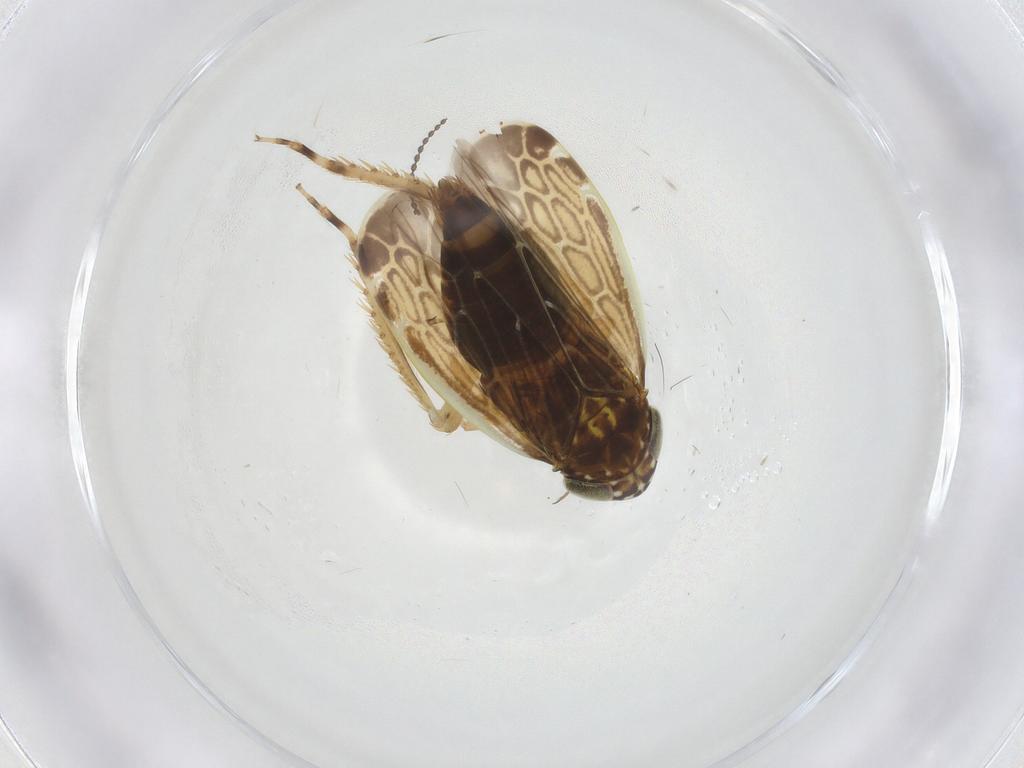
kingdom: Animalia
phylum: Arthropoda
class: Insecta
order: Hemiptera
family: Cicadellidae
